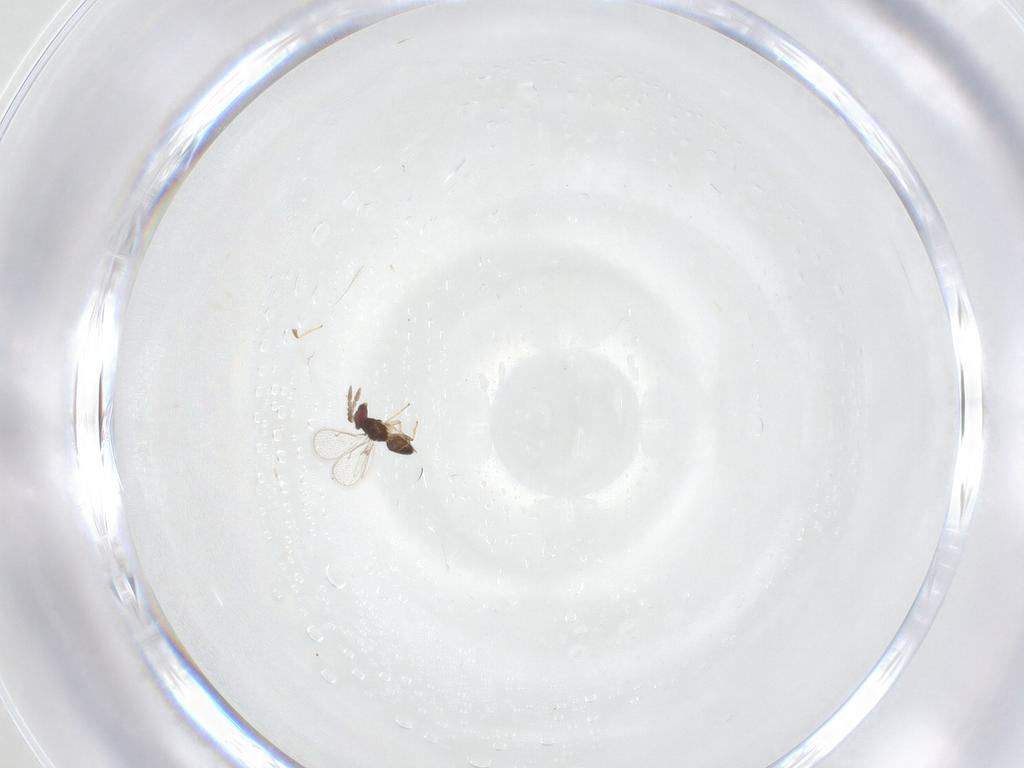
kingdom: Animalia
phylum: Arthropoda
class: Insecta
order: Hymenoptera
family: Eulophidae
